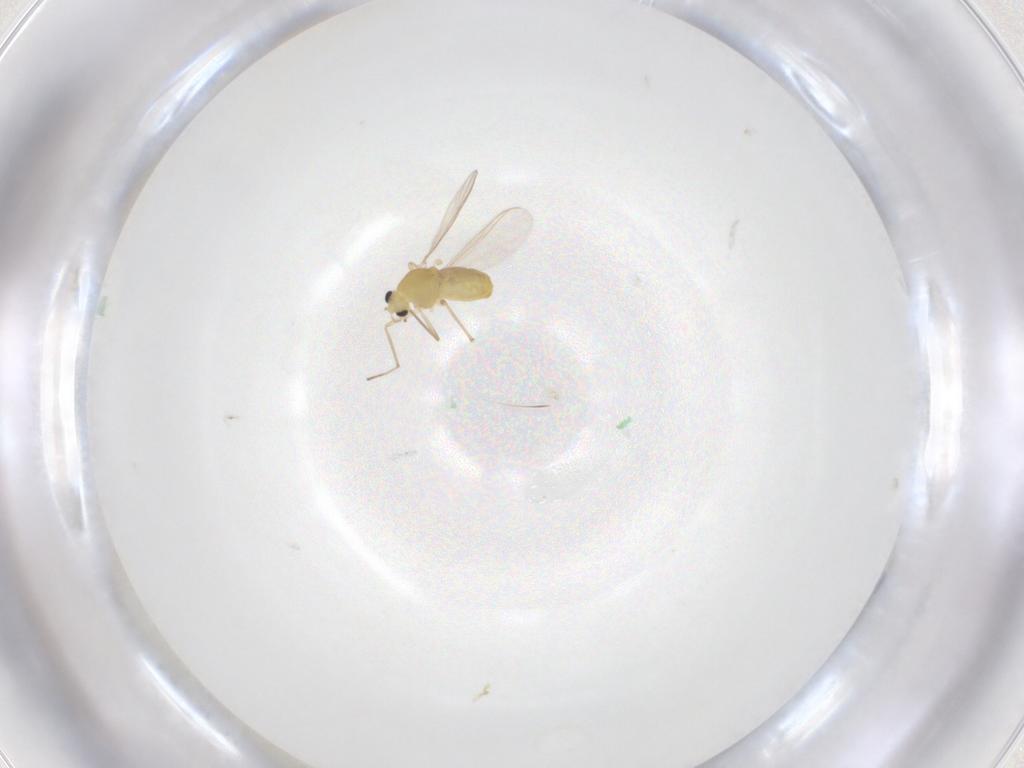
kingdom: Animalia
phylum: Arthropoda
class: Insecta
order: Diptera
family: Chironomidae
